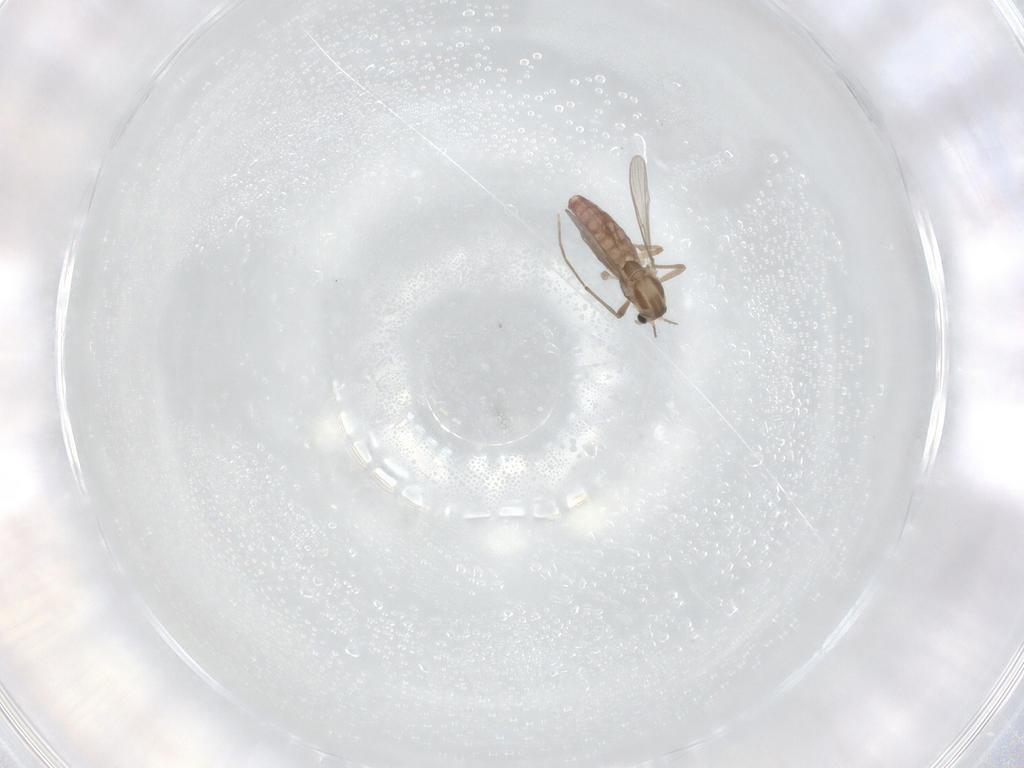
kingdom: Animalia
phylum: Arthropoda
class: Insecta
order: Diptera
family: Chironomidae
